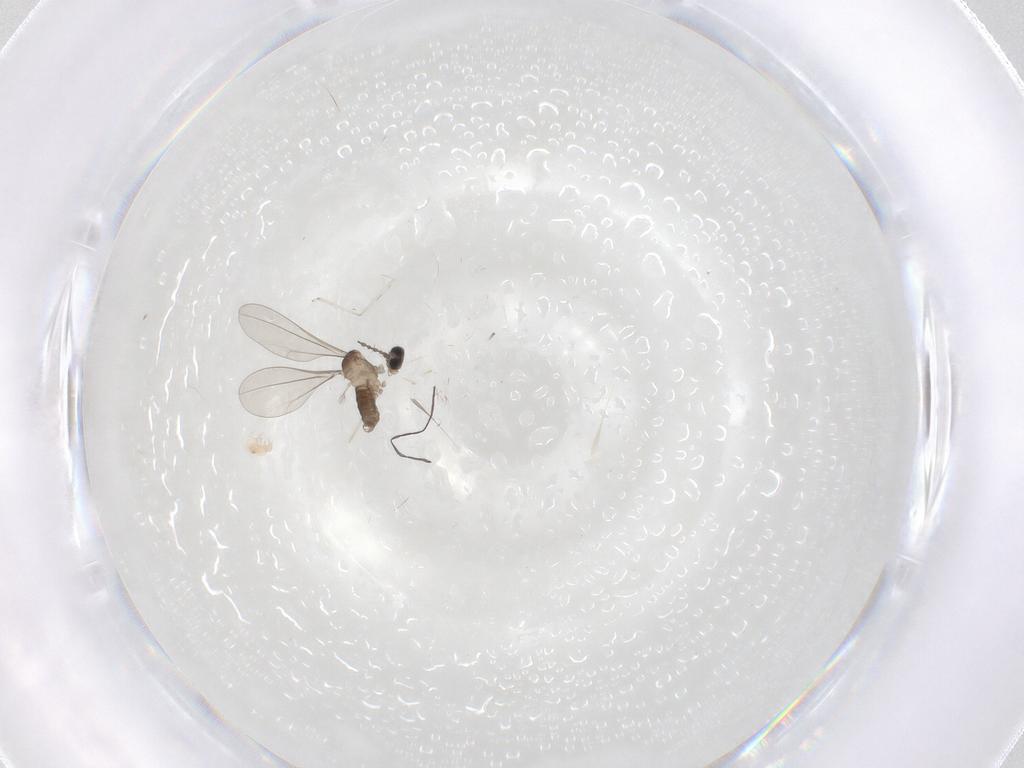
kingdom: Animalia
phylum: Arthropoda
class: Insecta
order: Diptera
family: Cecidomyiidae
